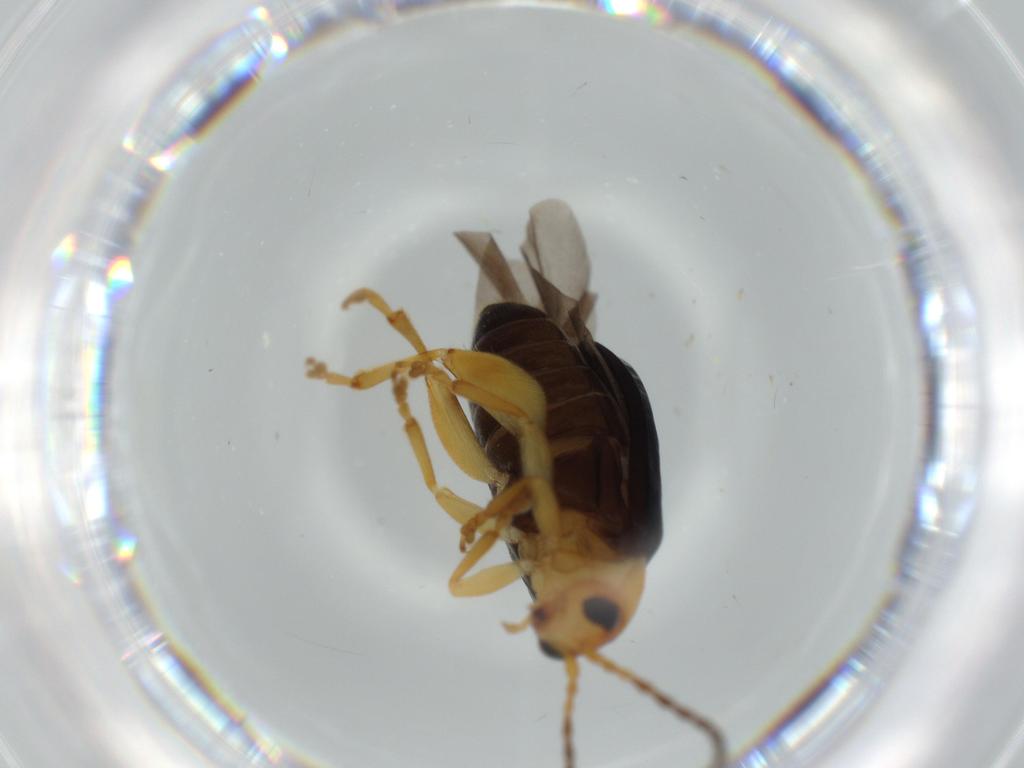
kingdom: Animalia
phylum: Arthropoda
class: Insecta
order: Coleoptera
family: Chrysomelidae
